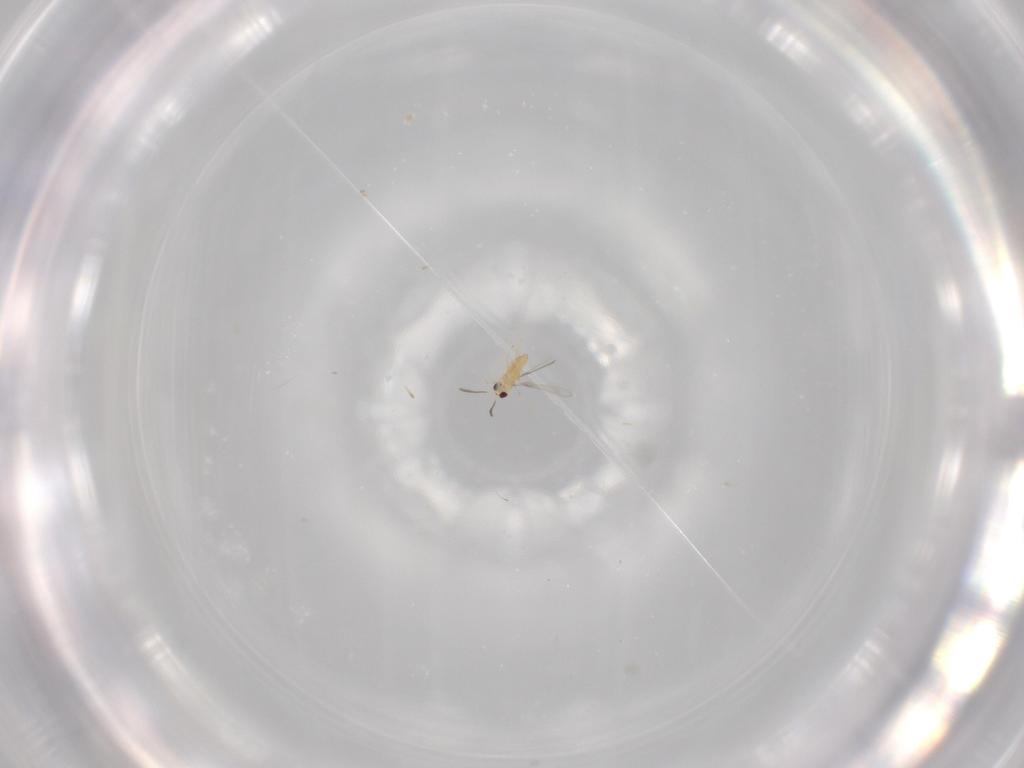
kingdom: Animalia
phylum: Arthropoda
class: Insecta
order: Hymenoptera
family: Mymaridae
